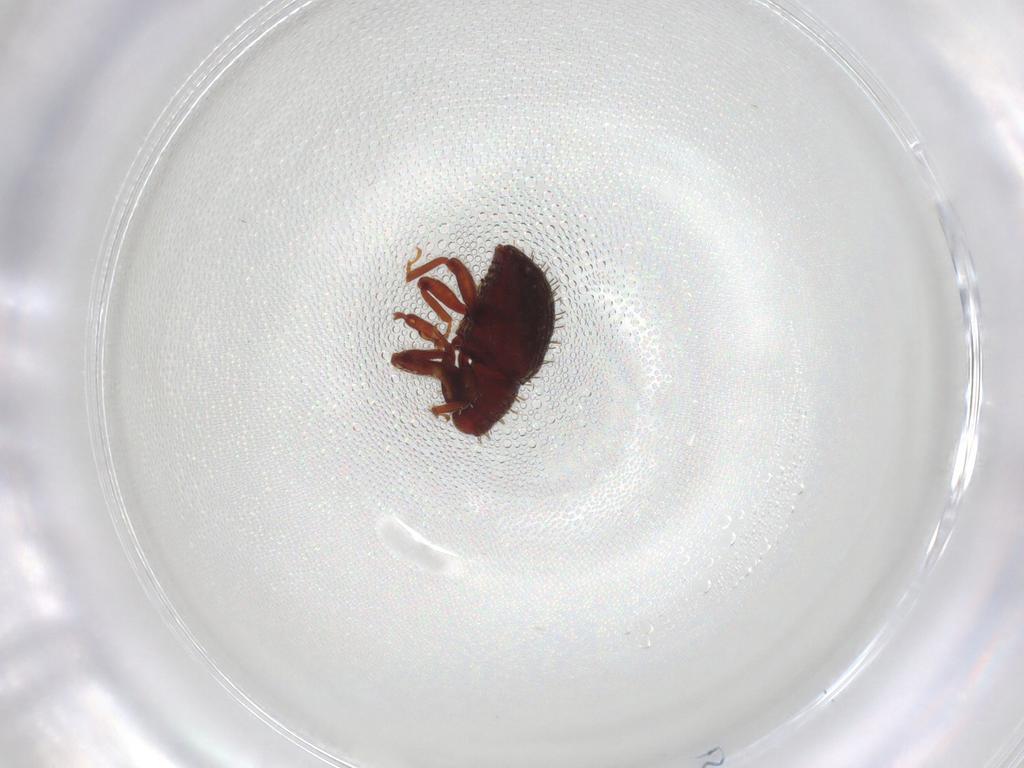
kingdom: Animalia
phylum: Arthropoda
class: Insecta
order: Coleoptera
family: Curculionidae
